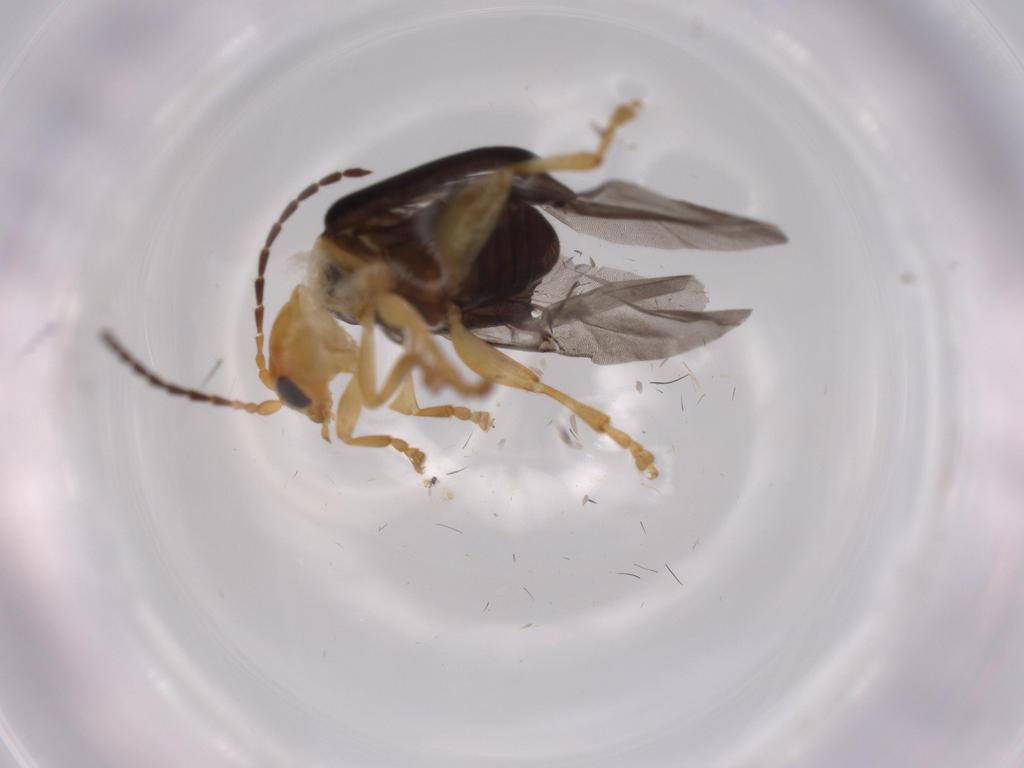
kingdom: Animalia
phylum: Arthropoda
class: Insecta
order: Coleoptera
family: Chrysomelidae
